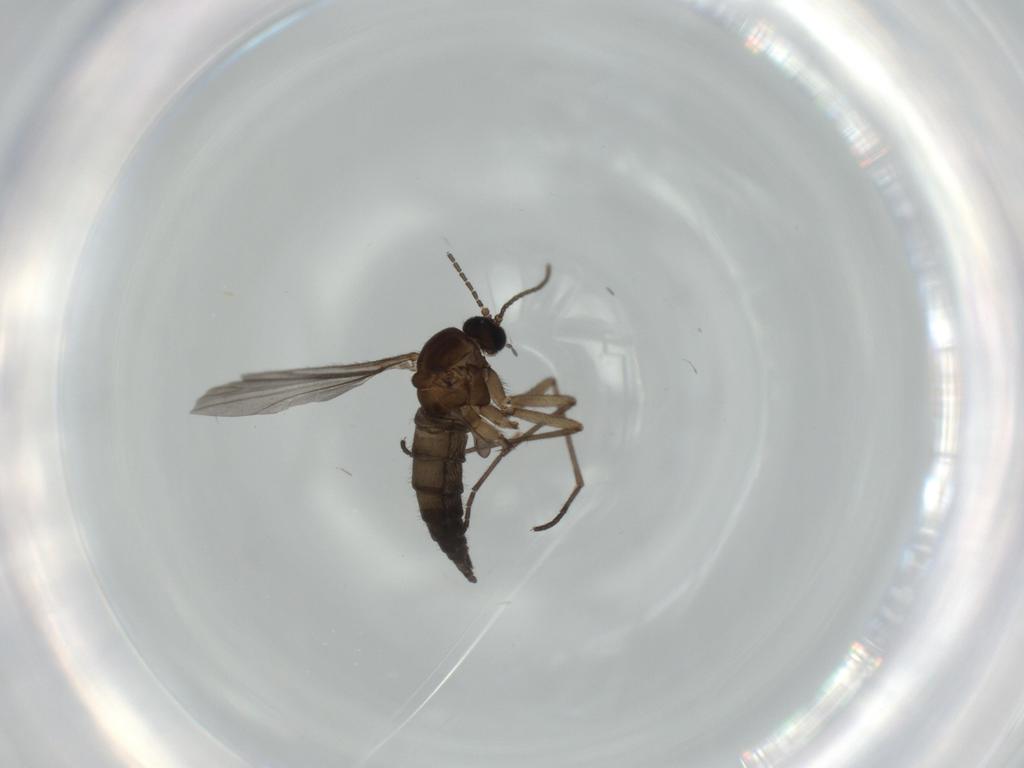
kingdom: Animalia
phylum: Arthropoda
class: Insecta
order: Diptera
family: Sciaridae
